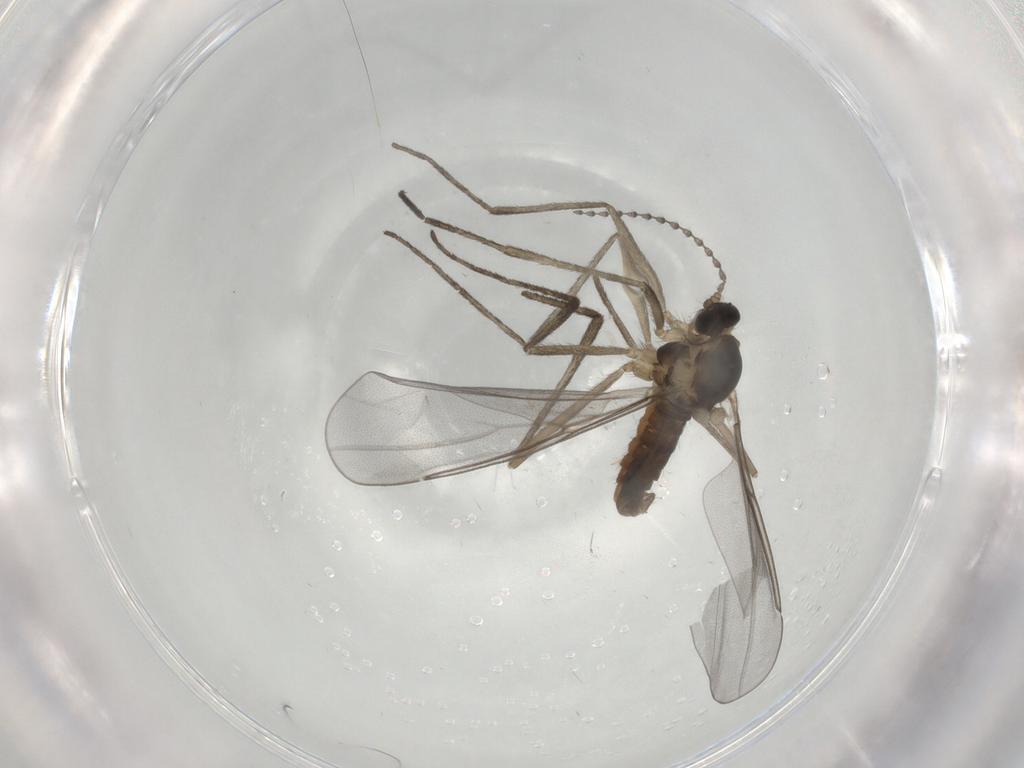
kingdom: Animalia
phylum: Arthropoda
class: Insecta
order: Diptera
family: Cecidomyiidae
